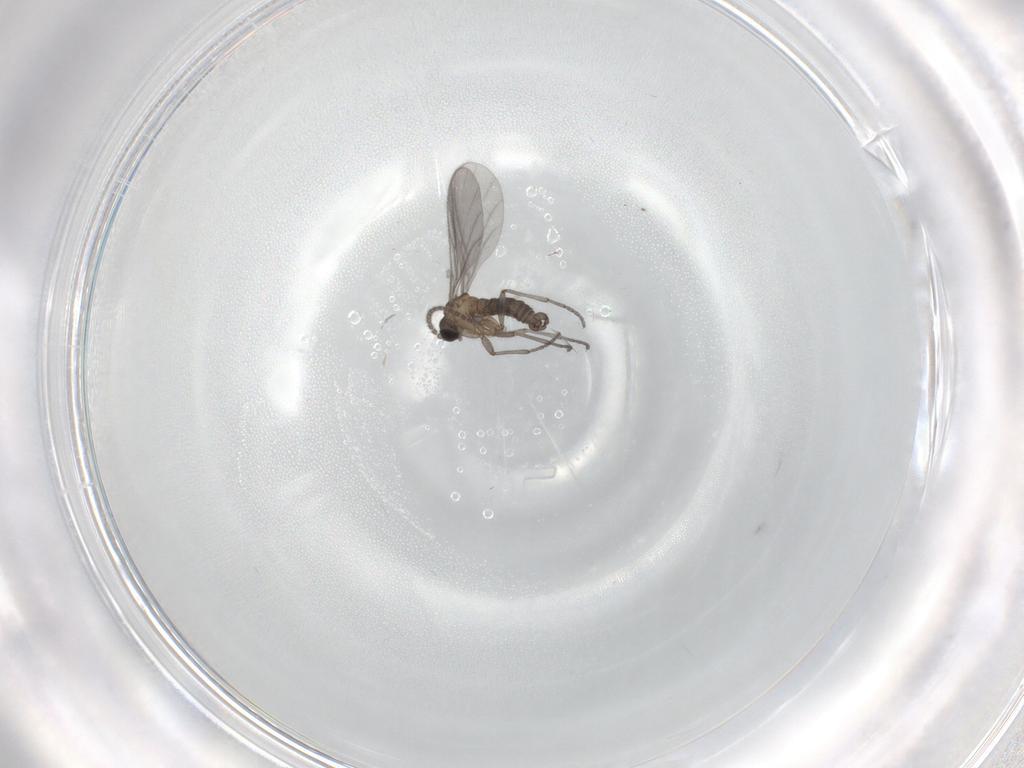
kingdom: Animalia
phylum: Arthropoda
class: Insecta
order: Diptera
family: Sciaridae
